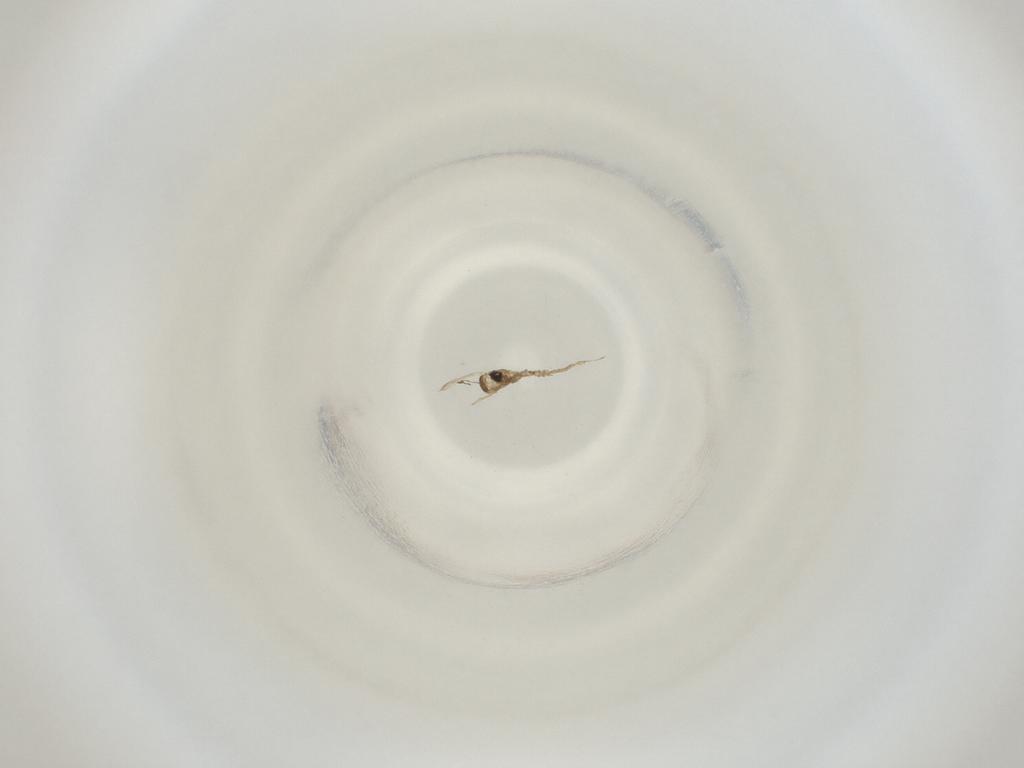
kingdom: Animalia
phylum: Arthropoda
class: Insecta
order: Diptera
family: Cecidomyiidae
